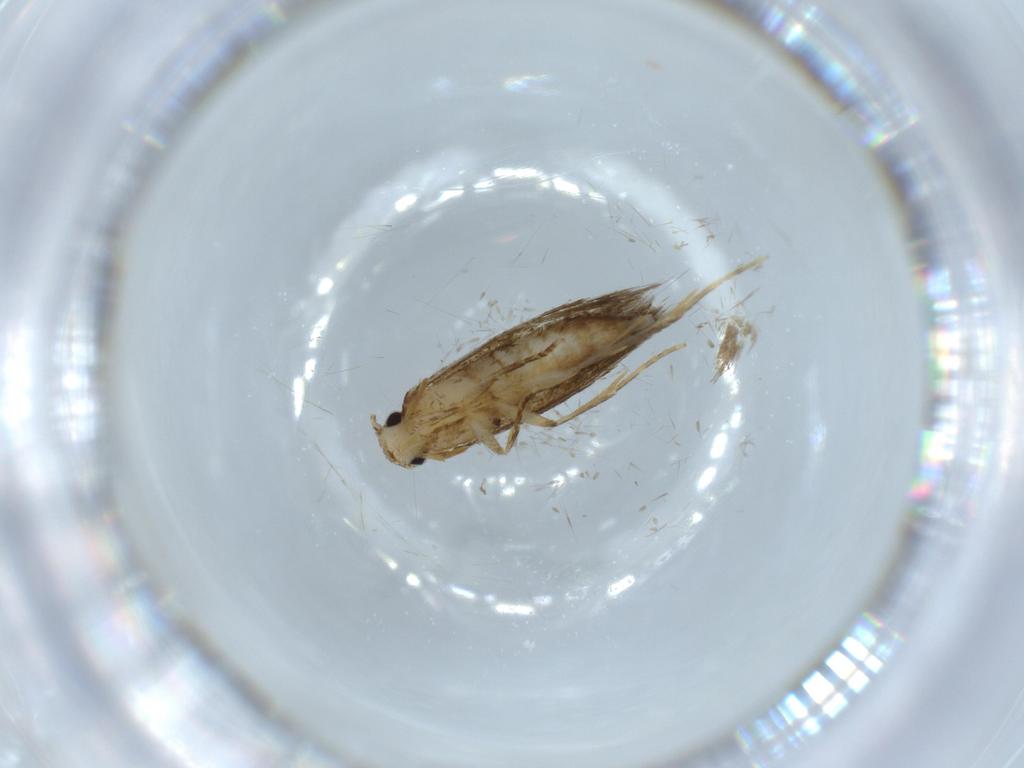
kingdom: Animalia
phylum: Arthropoda
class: Insecta
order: Lepidoptera
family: Tineidae
